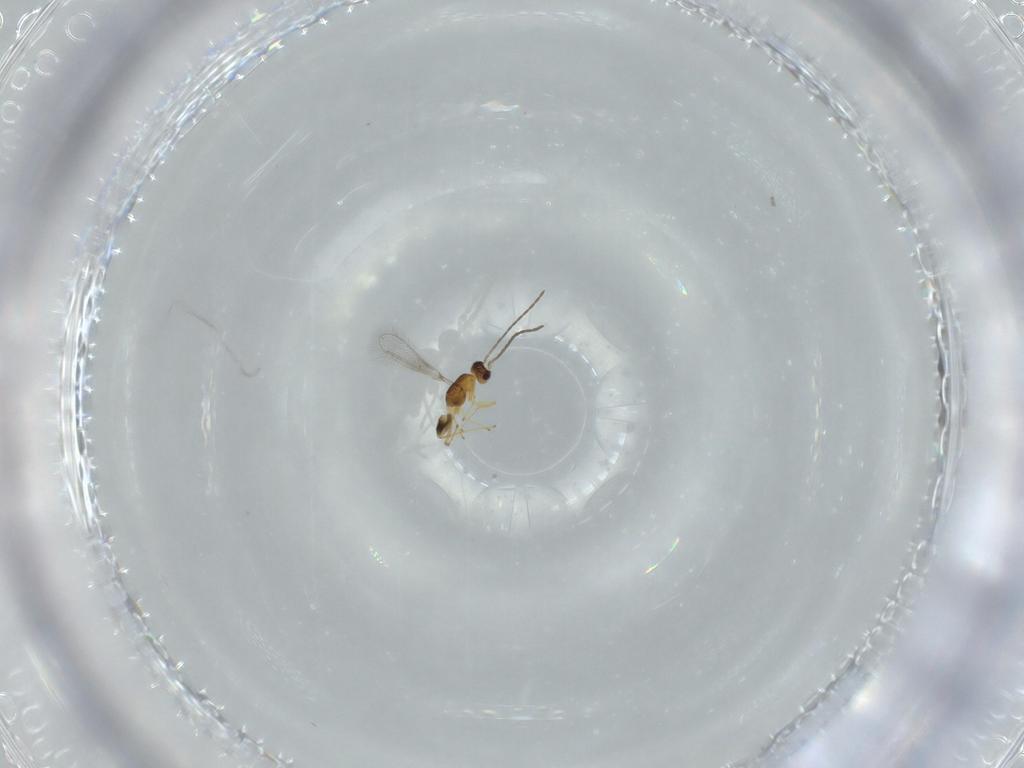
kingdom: Animalia
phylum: Arthropoda
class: Insecta
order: Hymenoptera
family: Mymaridae
